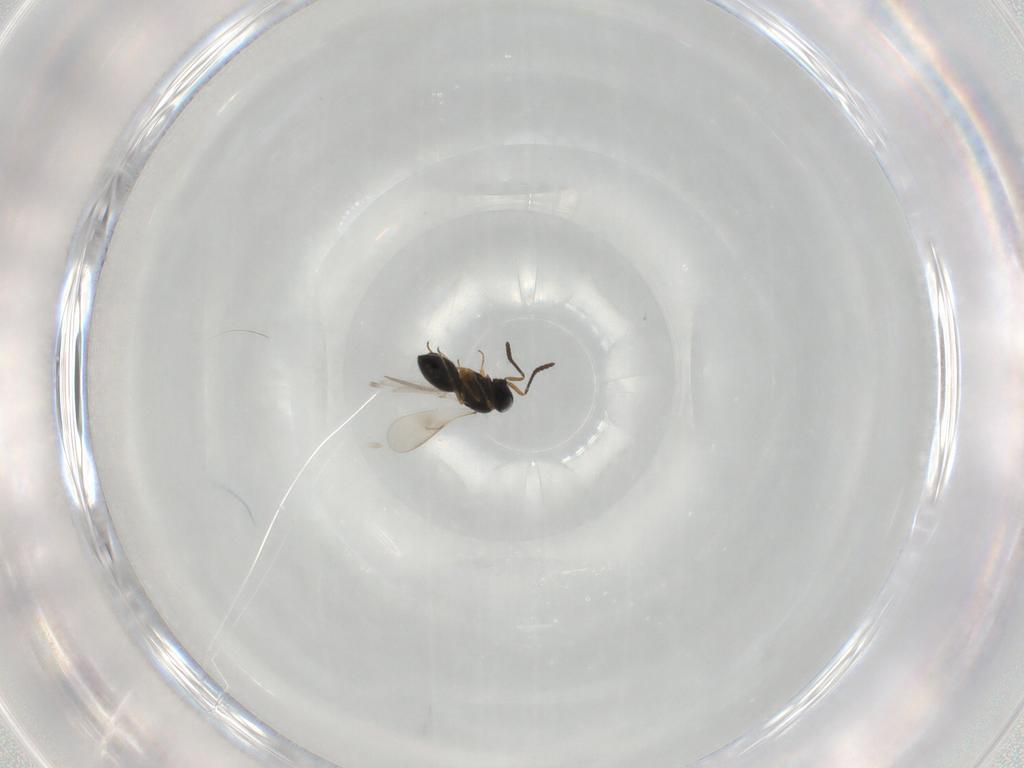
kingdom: Animalia
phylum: Arthropoda
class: Insecta
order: Hymenoptera
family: Scelionidae
